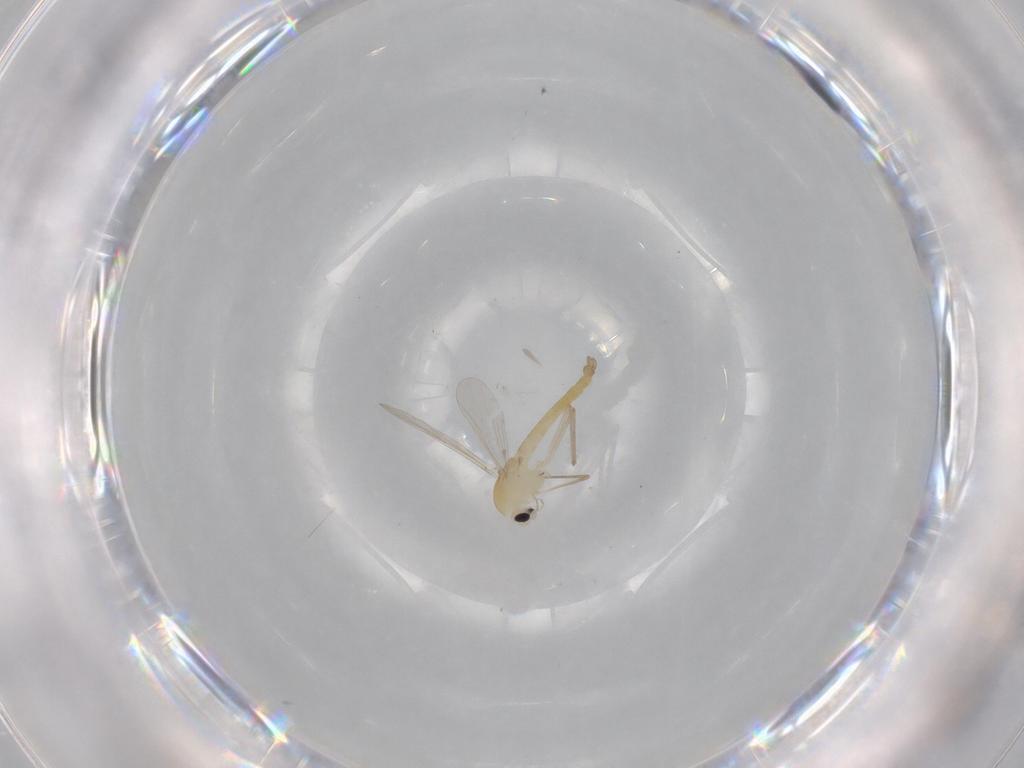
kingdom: Animalia
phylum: Arthropoda
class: Insecta
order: Diptera
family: Chironomidae
